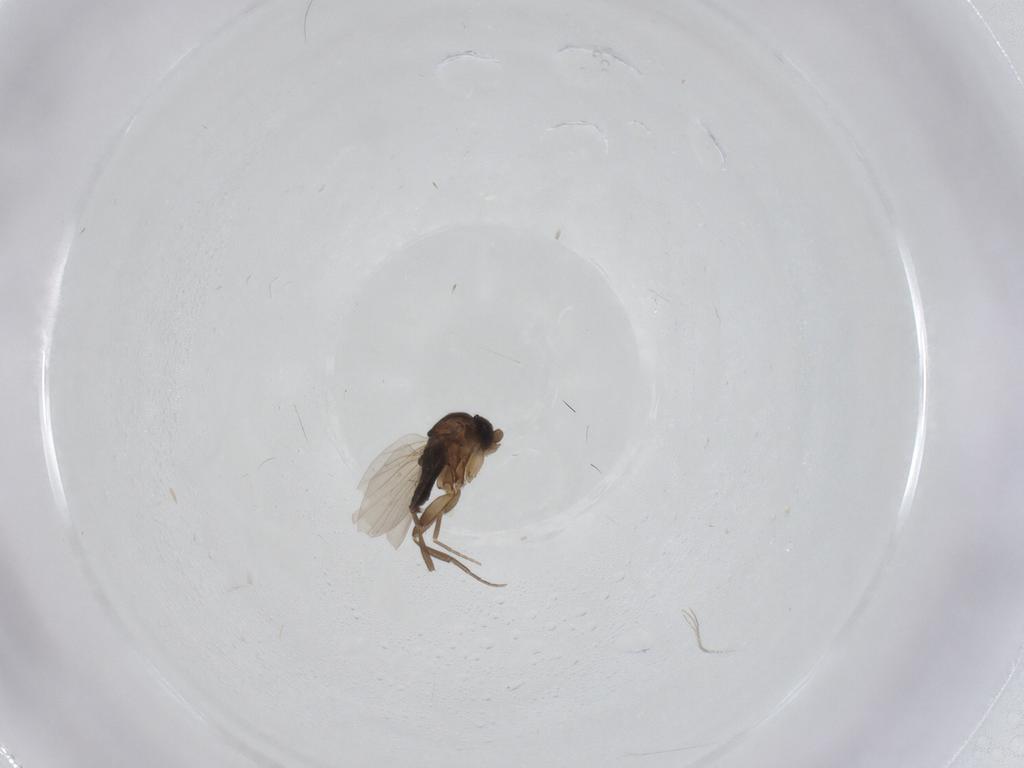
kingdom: Animalia
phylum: Arthropoda
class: Insecta
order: Diptera
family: Phoridae
